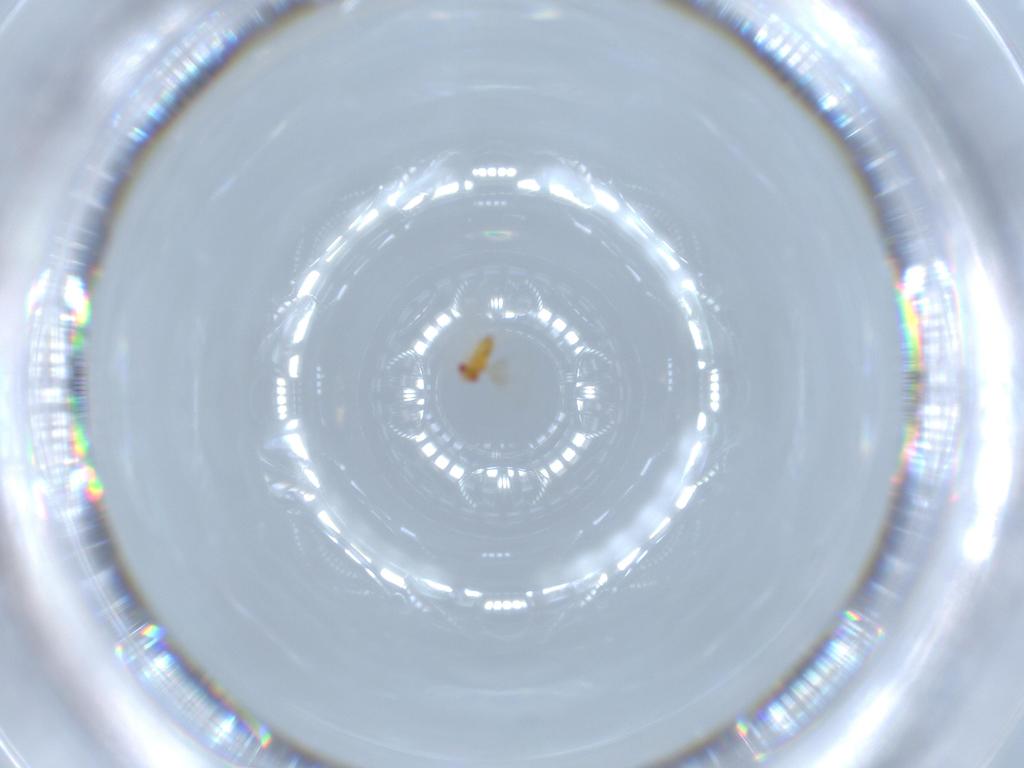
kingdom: Animalia
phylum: Arthropoda
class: Insecta
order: Hymenoptera
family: Trichogrammatidae
